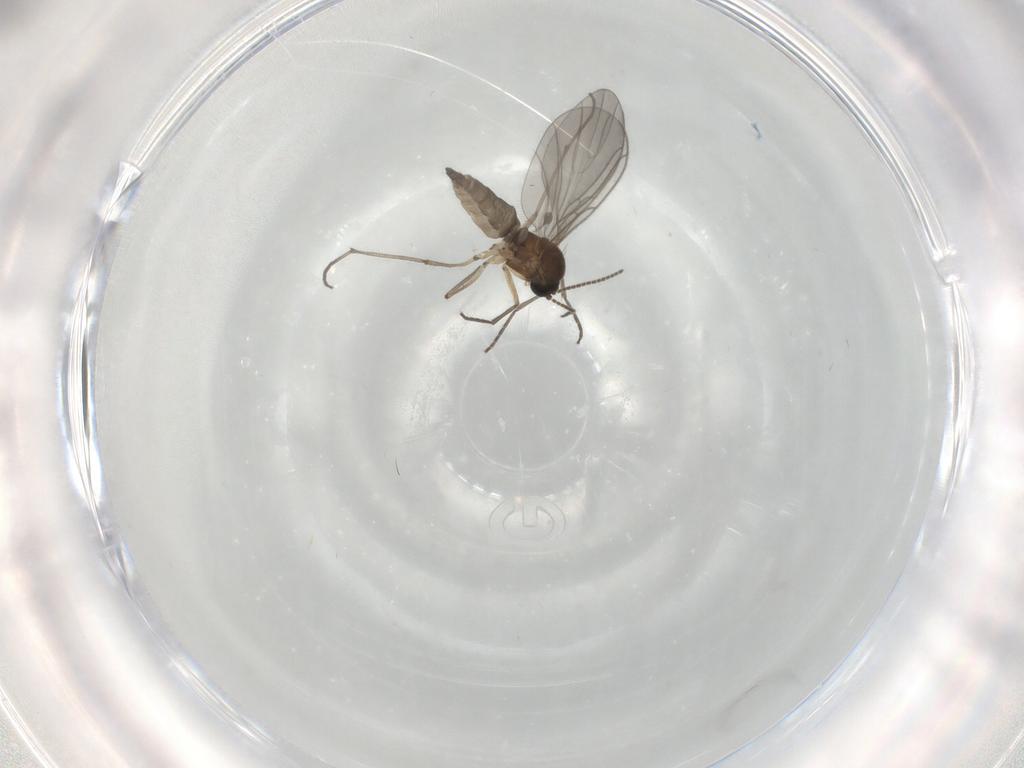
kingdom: Animalia
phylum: Arthropoda
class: Insecta
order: Diptera
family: Sciaridae
